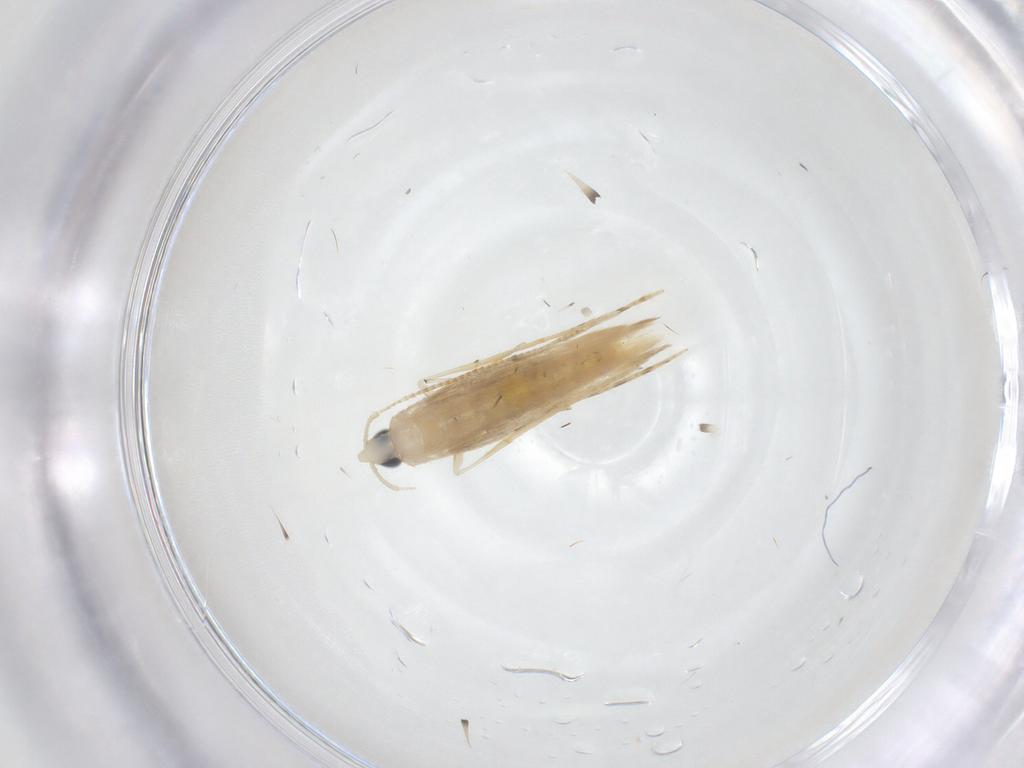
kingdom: Animalia
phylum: Arthropoda
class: Insecta
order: Lepidoptera
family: Tineidae
